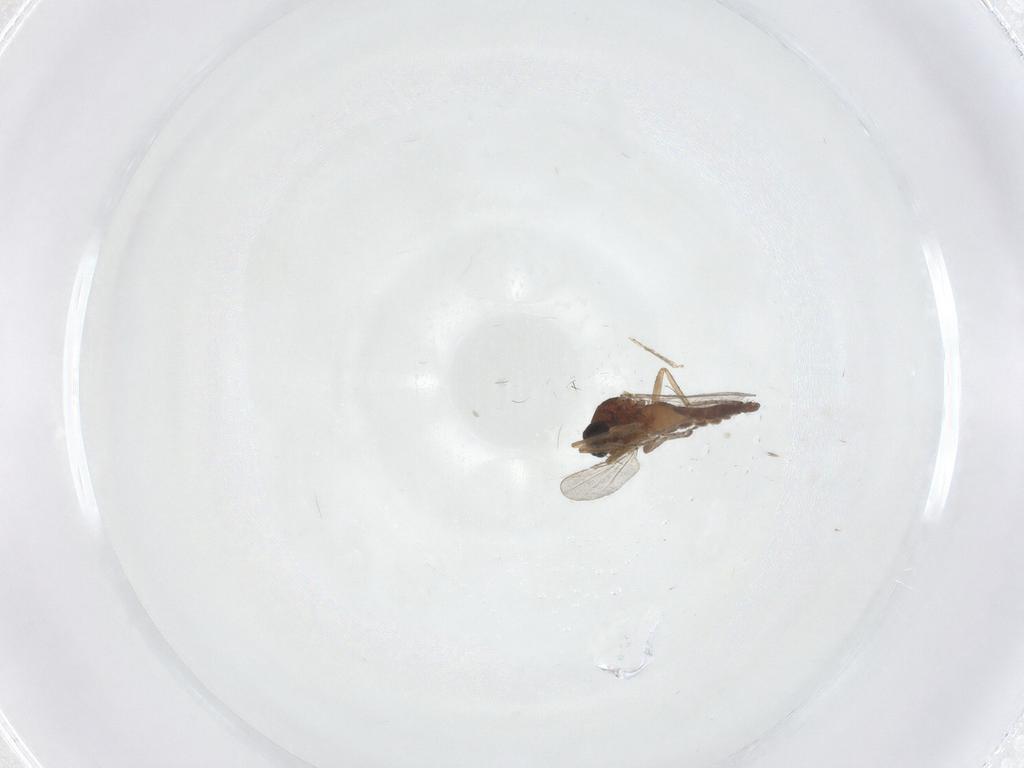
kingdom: Animalia
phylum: Arthropoda
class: Insecta
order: Diptera
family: Ceratopogonidae
